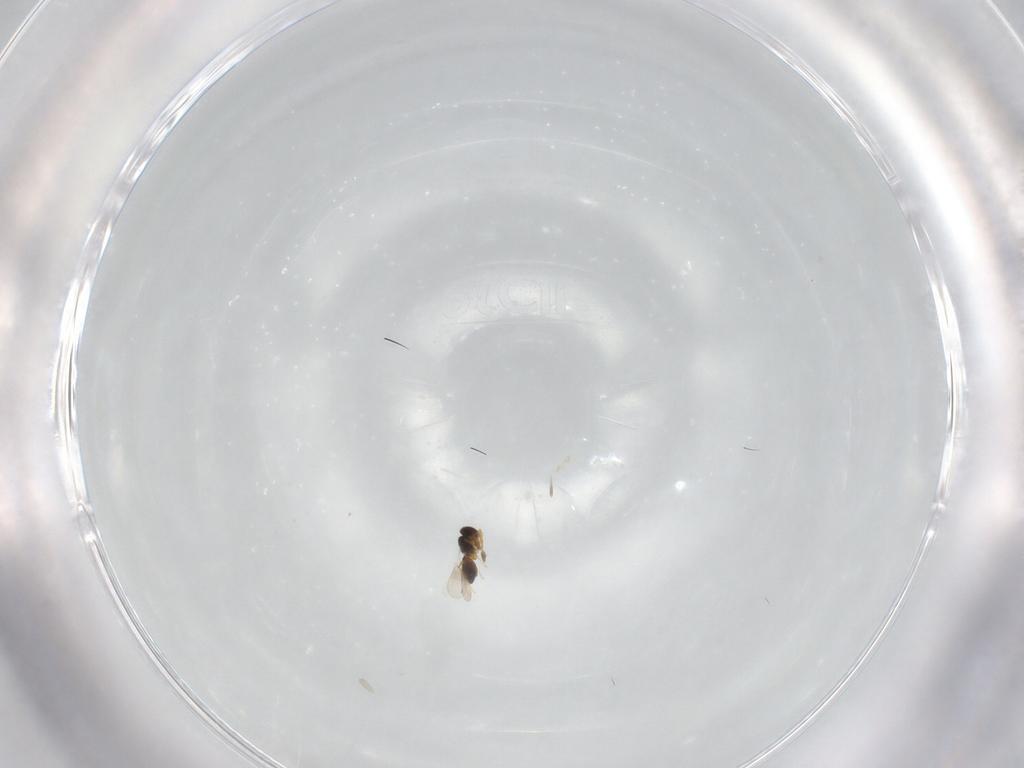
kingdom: Animalia
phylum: Arthropoda
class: Insecta
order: Hymenoptera
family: Platygastridae
